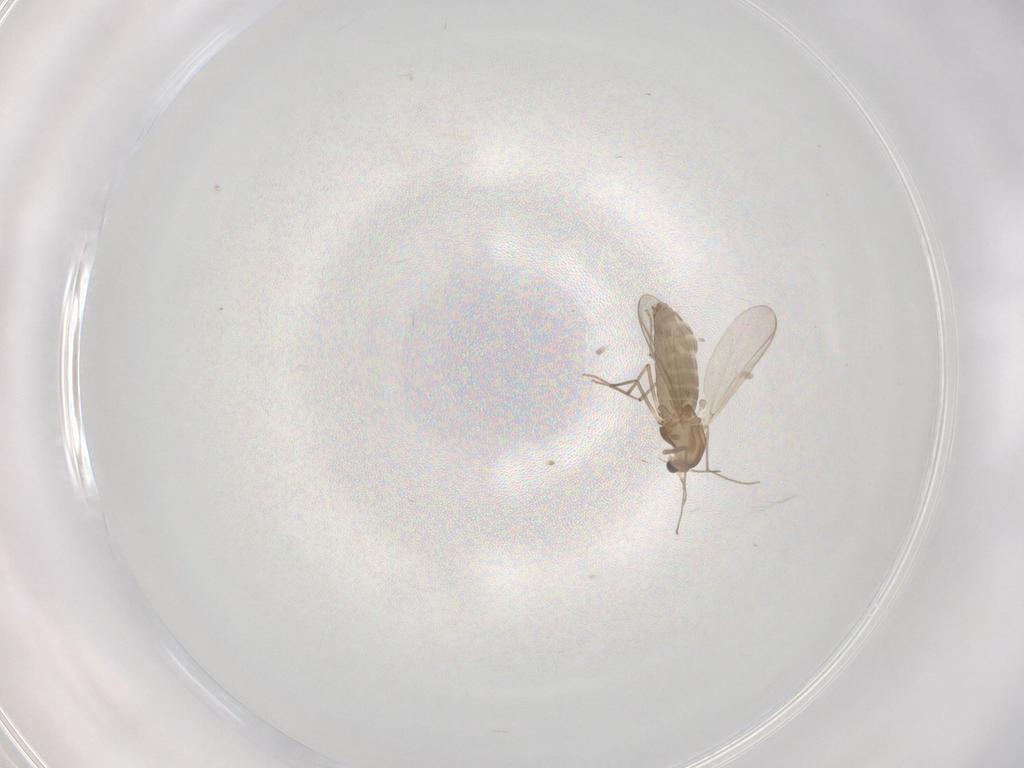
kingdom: Animalia
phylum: Arthropoda
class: Insecta
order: Diptera
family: Chironomidae
